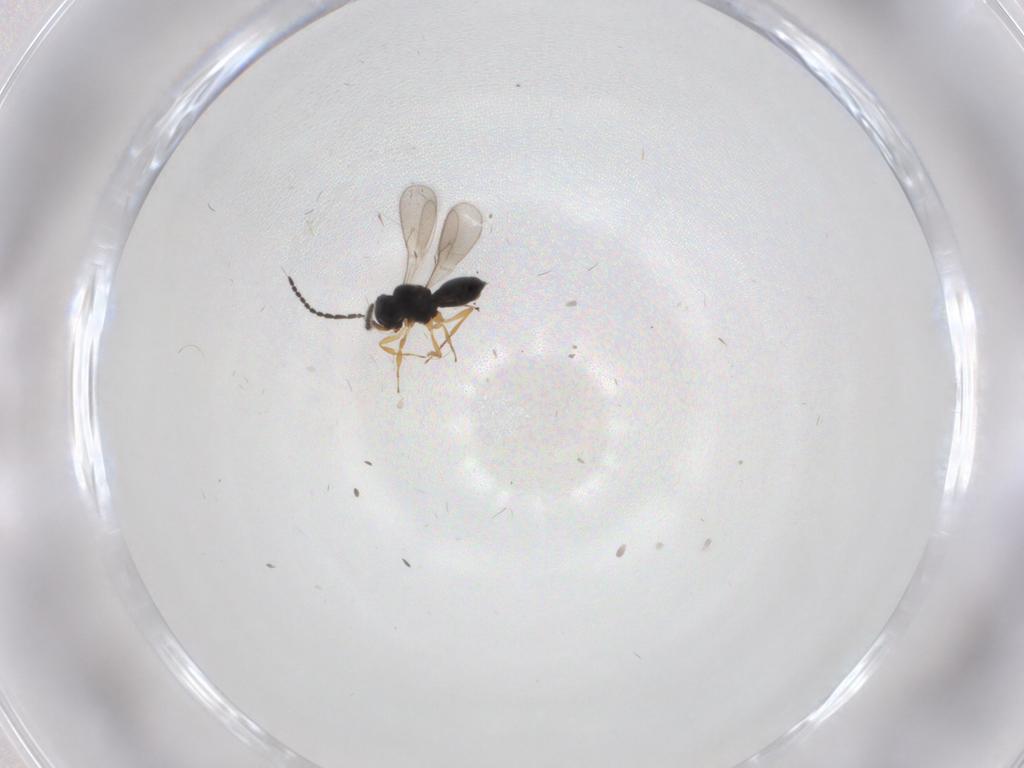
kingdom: Animalia
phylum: Arthropoda
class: Insecta
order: Hymenoptera
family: Scelionidae
